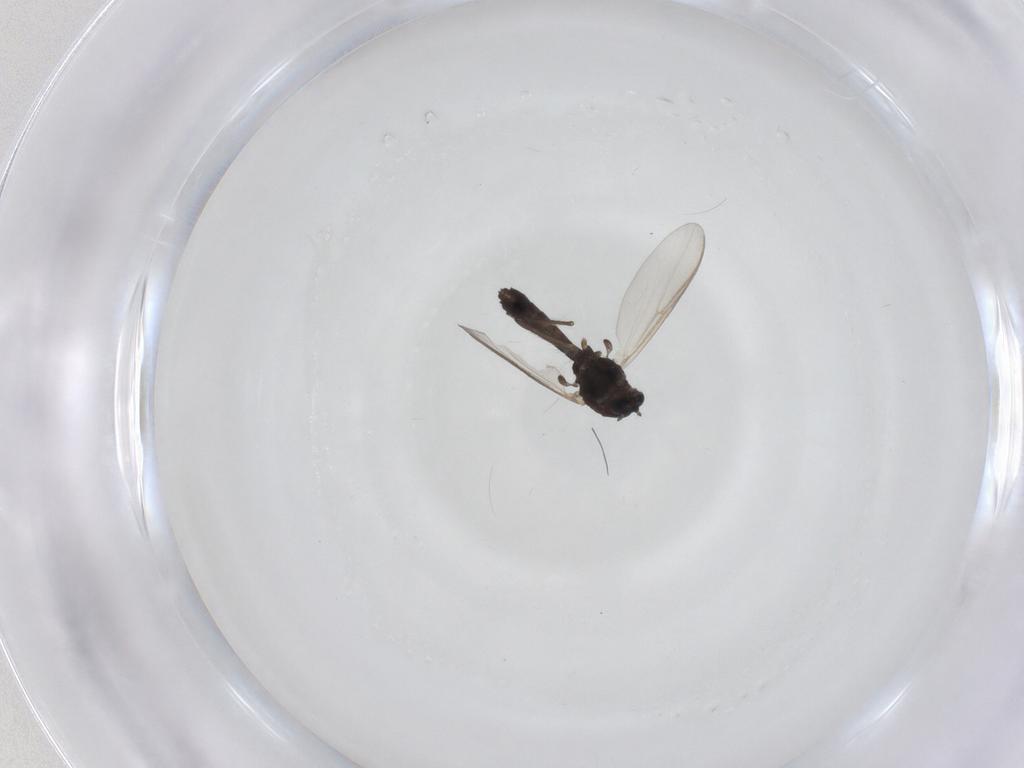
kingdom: Animalia
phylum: Arthropoda
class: Insecta
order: Diptera
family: Chironomidae
